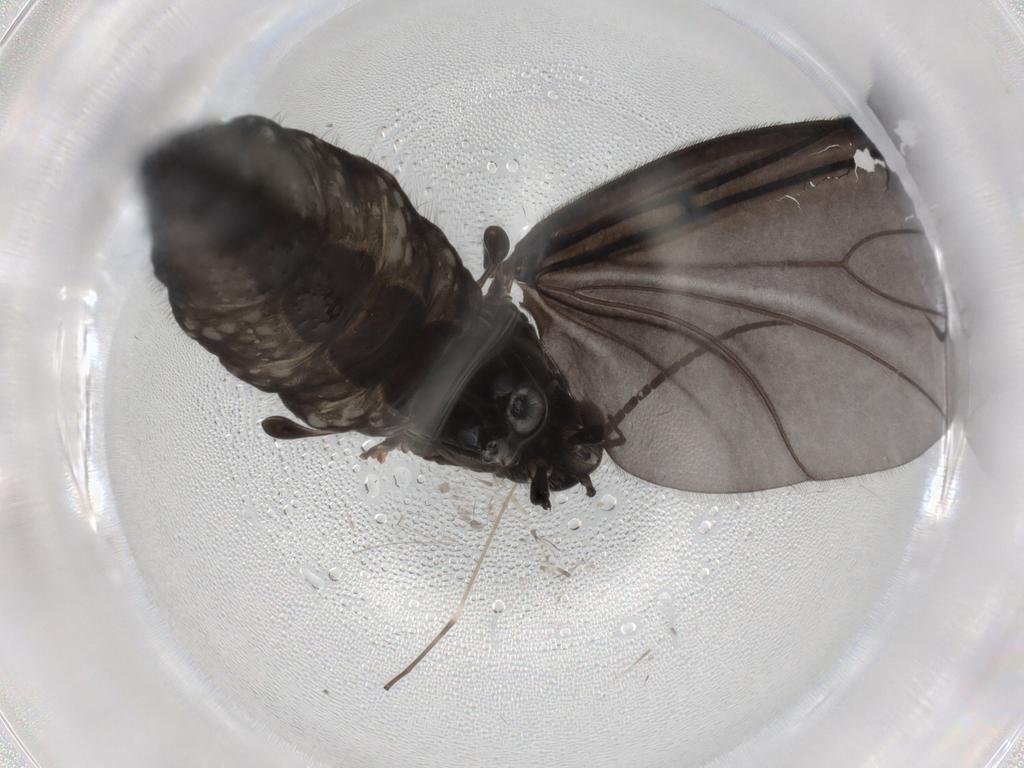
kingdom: Animalia
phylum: Arthropoda
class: Insecta
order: Diptera
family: Limoniidae
